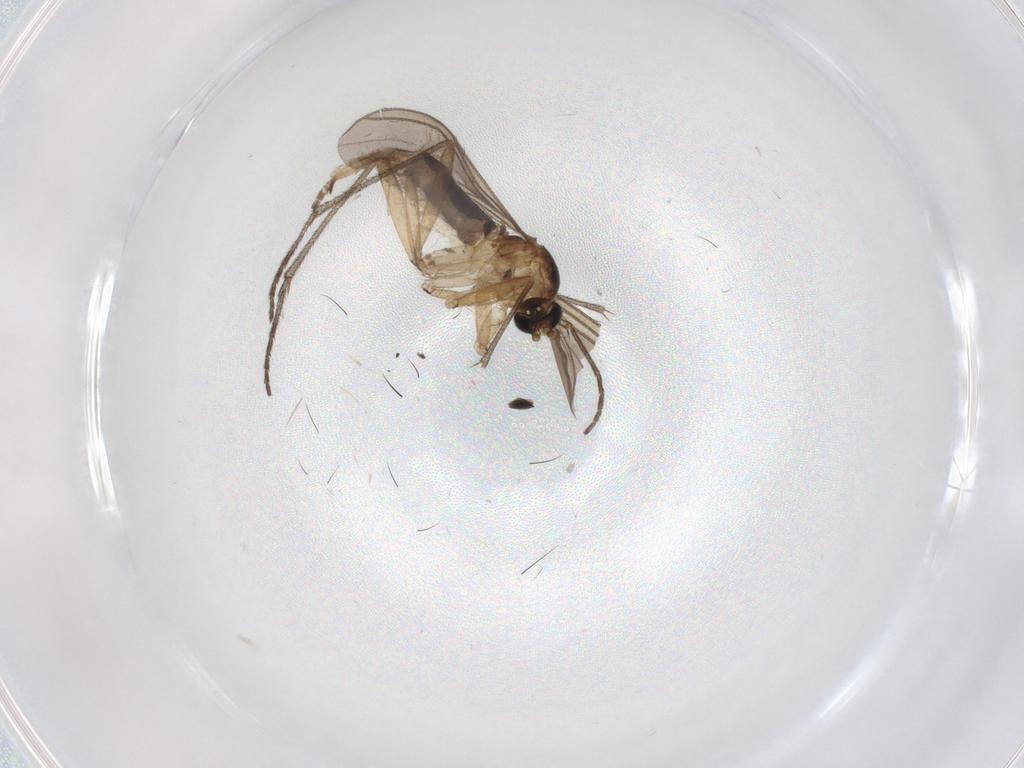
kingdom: Animalia
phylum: Arthropoda
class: Insecta
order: Diptera
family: Sciaridae
